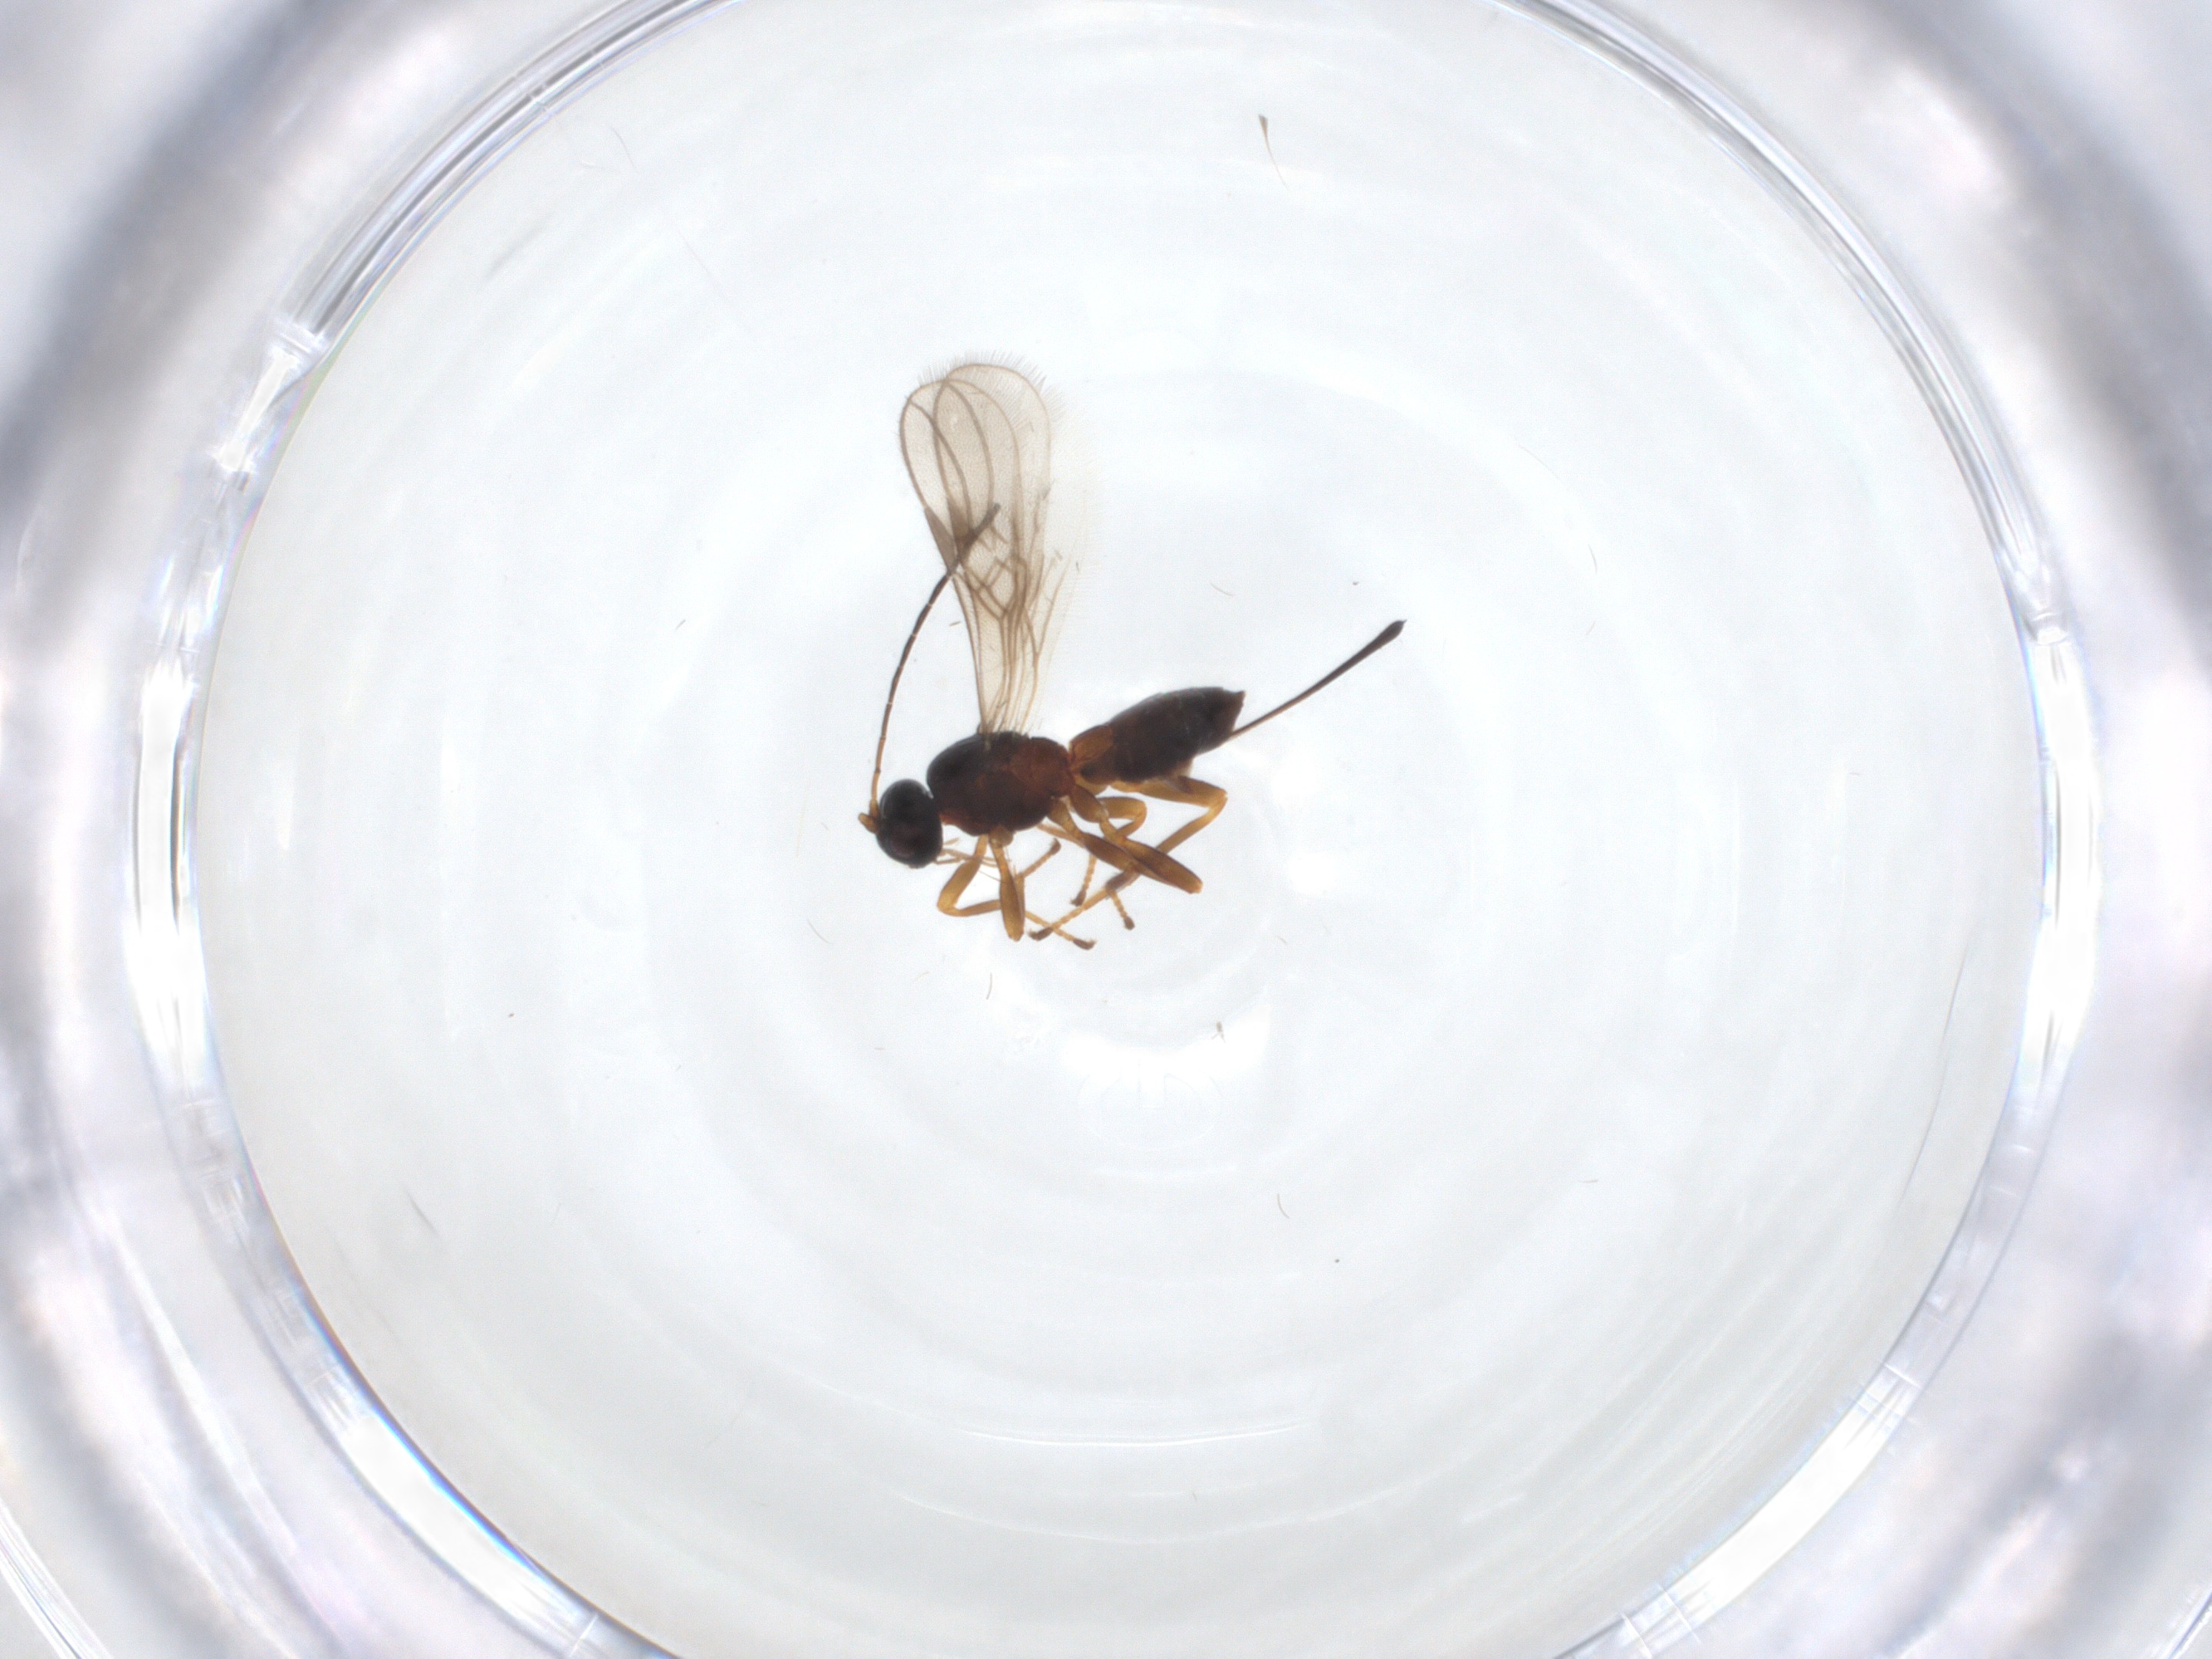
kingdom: Animalia
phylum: Arthropoda
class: Insecta
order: Hymenoptera
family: Braconidae
